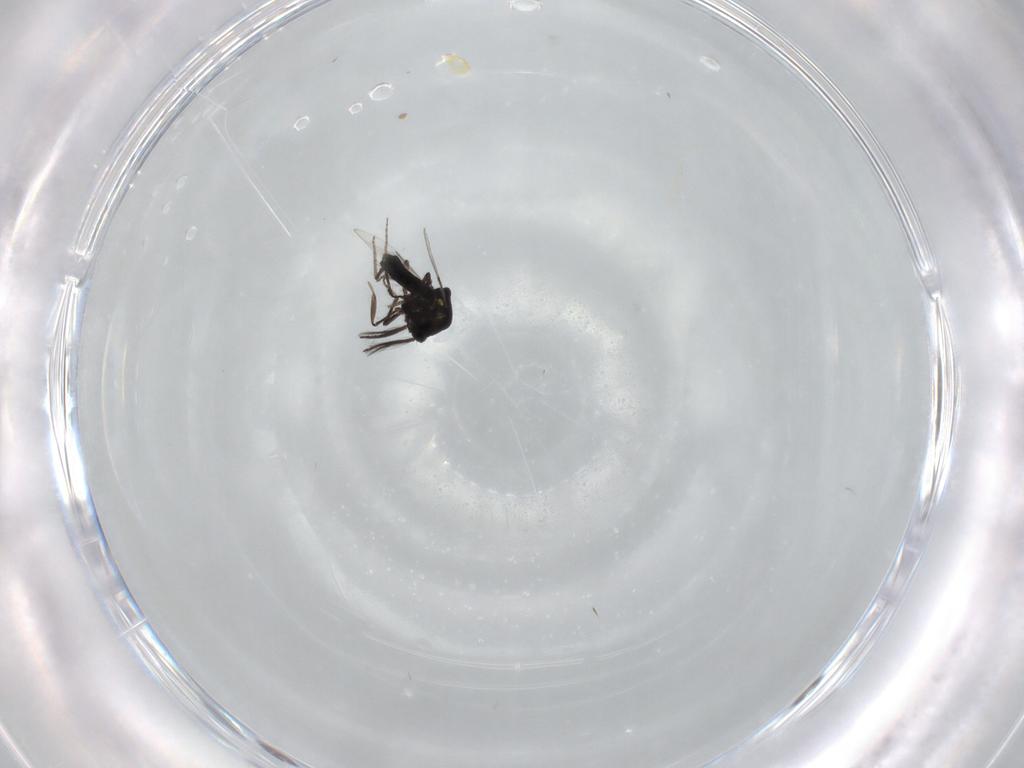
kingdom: Animalia
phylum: Arthropoda
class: Insecta
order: Diptera
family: Ceratopogonidae
